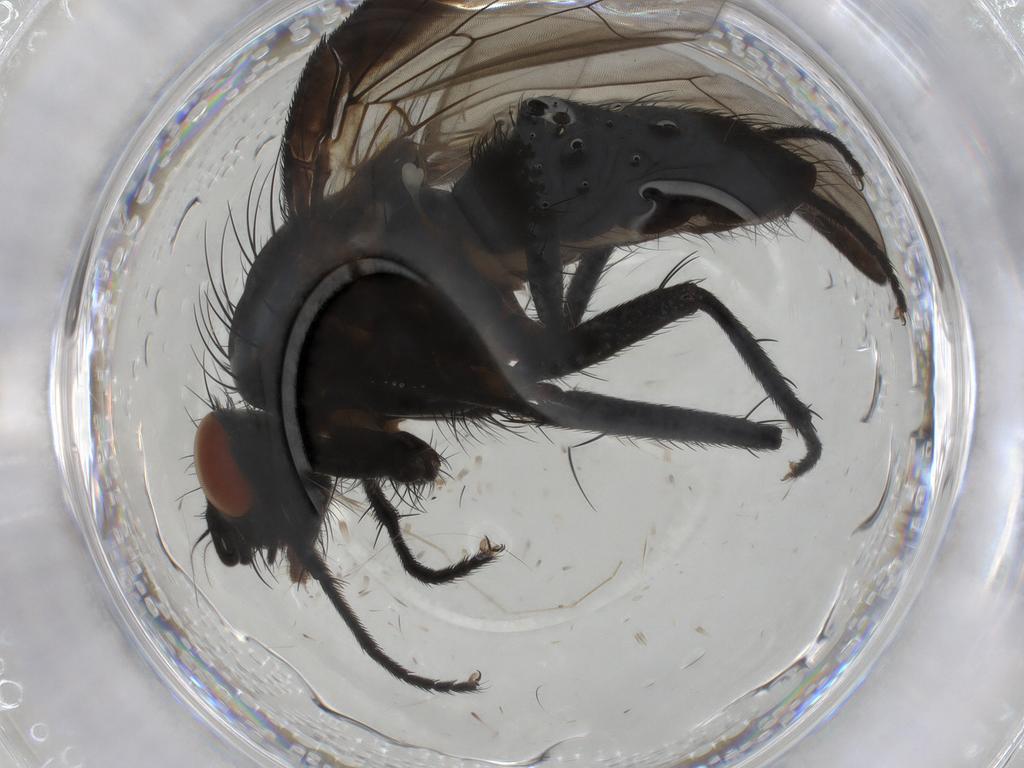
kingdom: Animalia
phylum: Arthropoda
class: Insecta
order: Diptera
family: Anthomyiidae
